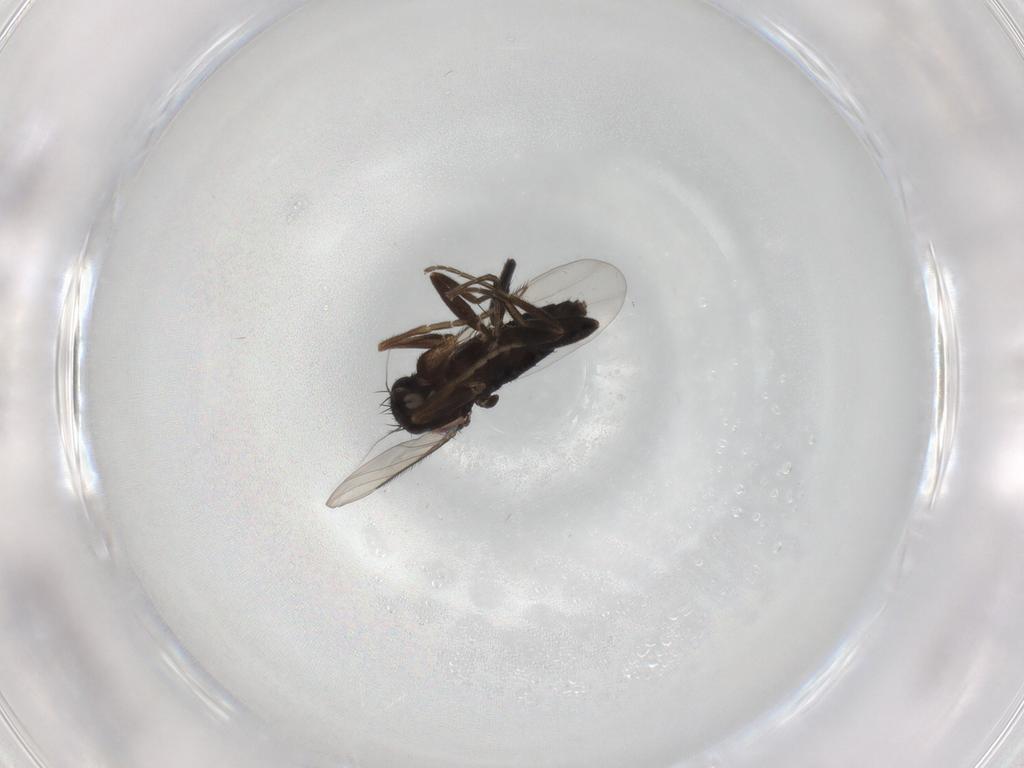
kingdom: Animalia
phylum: Arthropoda
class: Insecta
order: Diptera
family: Phoridae
